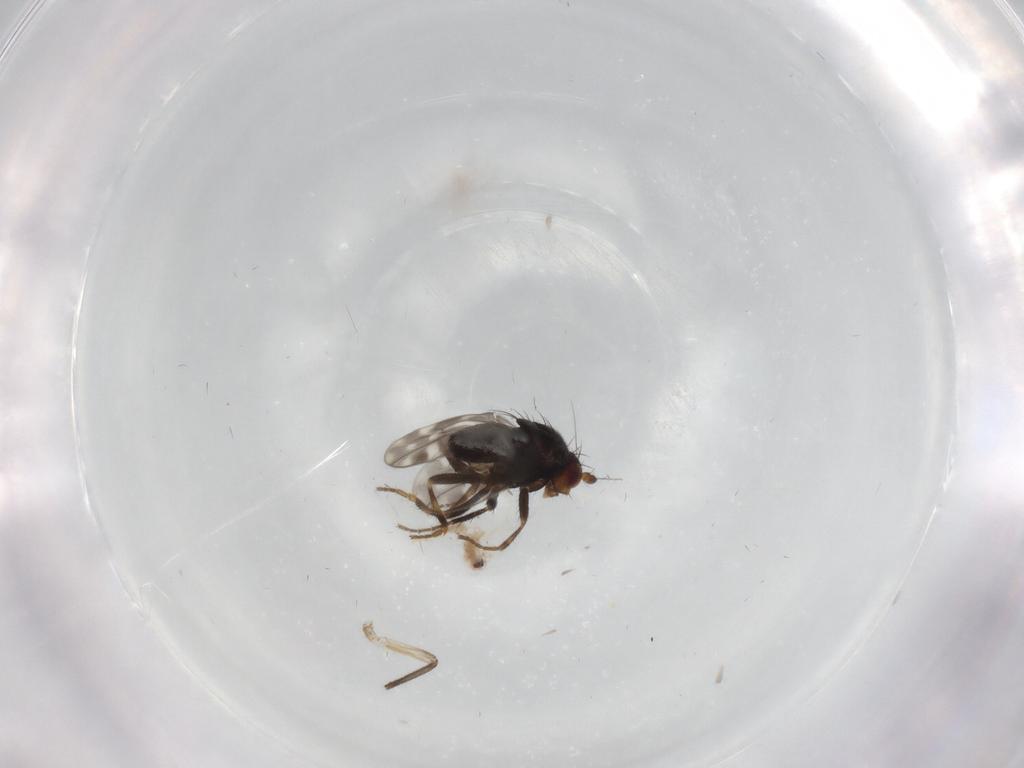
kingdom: Animalia
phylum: Arthropoda
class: Insecta
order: Diptera
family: Sphaeroceridae
